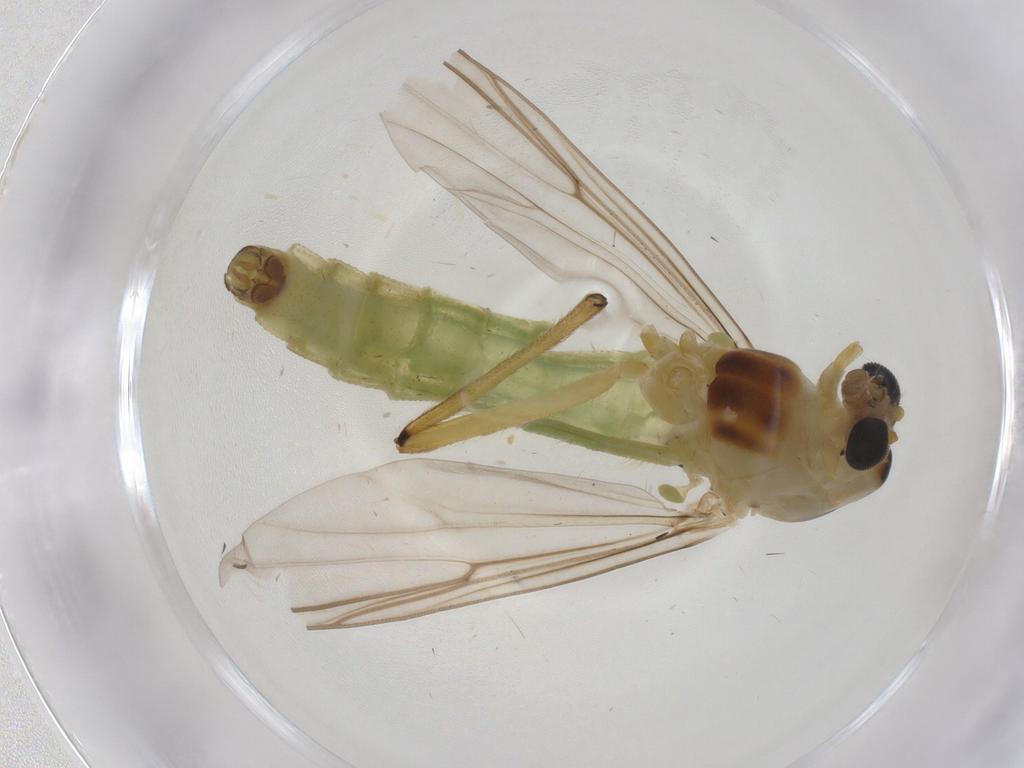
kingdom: Animalia
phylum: Arthropoda
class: Insecta
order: Diptera
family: Cecidomyiidae
